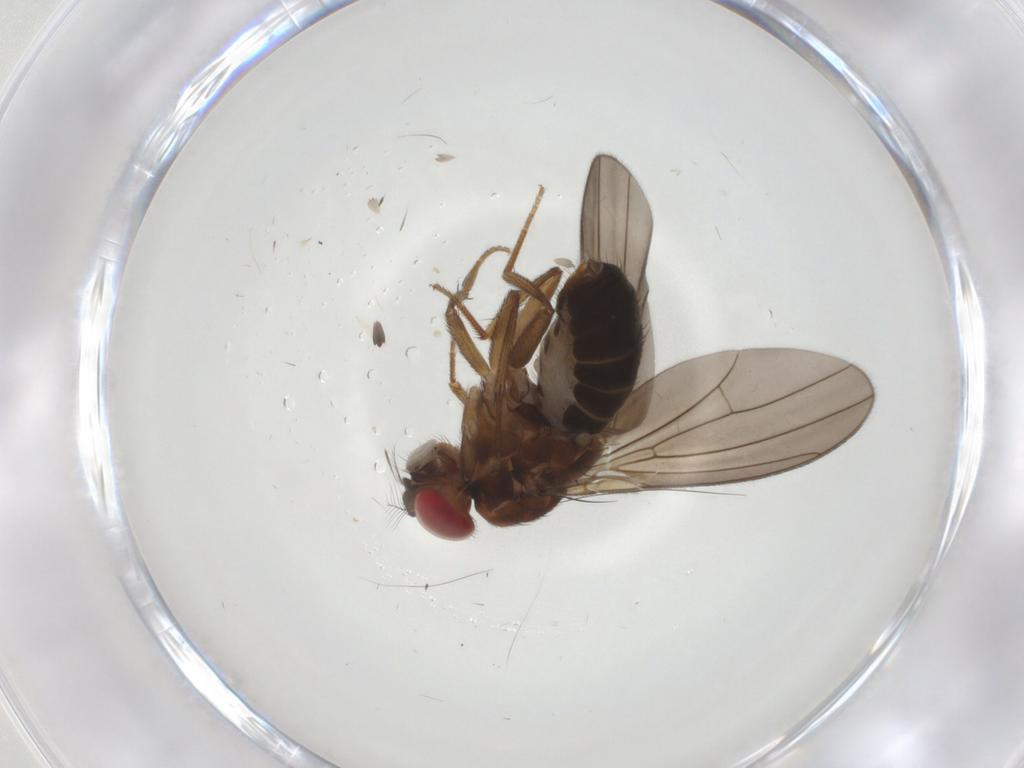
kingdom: Animalia
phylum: Arthropoda
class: Insecta
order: Diptera
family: Drosophilidae
